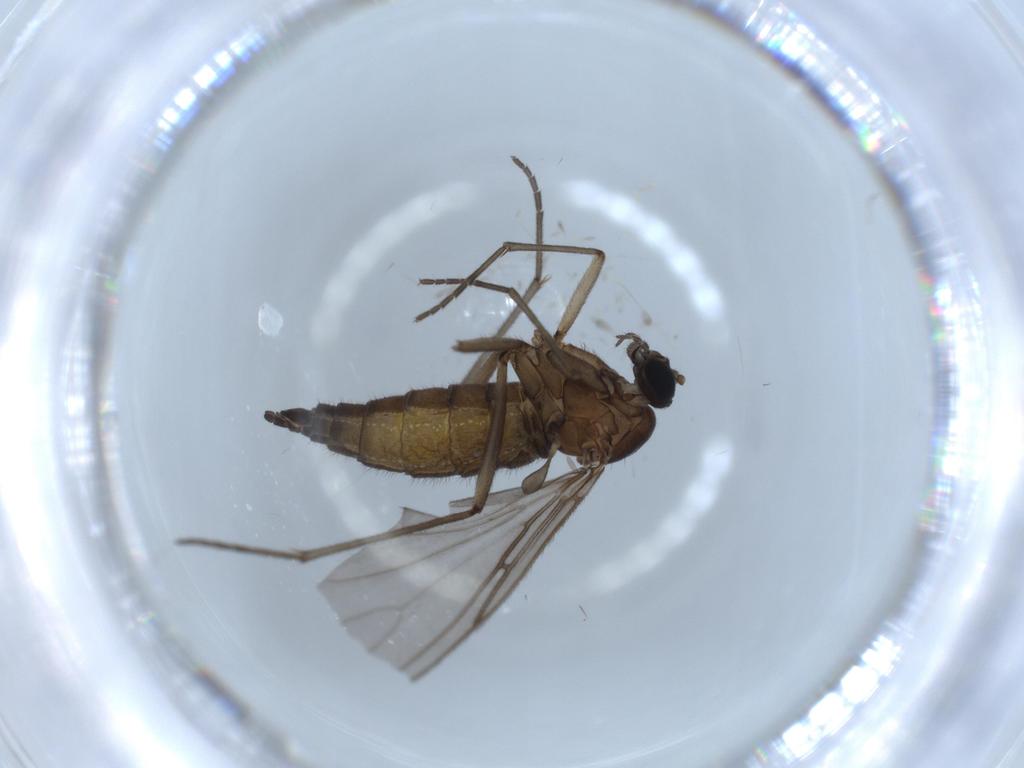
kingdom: Animalia
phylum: Arthropoda
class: Insecta
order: Diptera
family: Sciaridae
